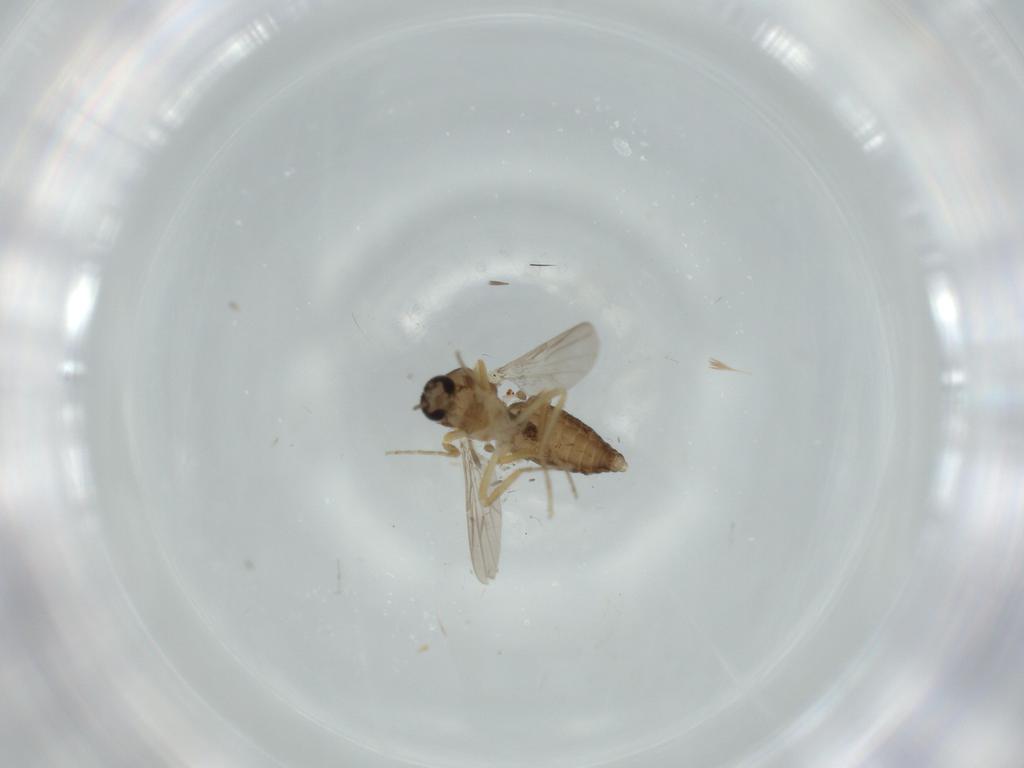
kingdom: Animalia
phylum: Arthropoda
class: Insecta
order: Diptera
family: Ceratopogonidae
